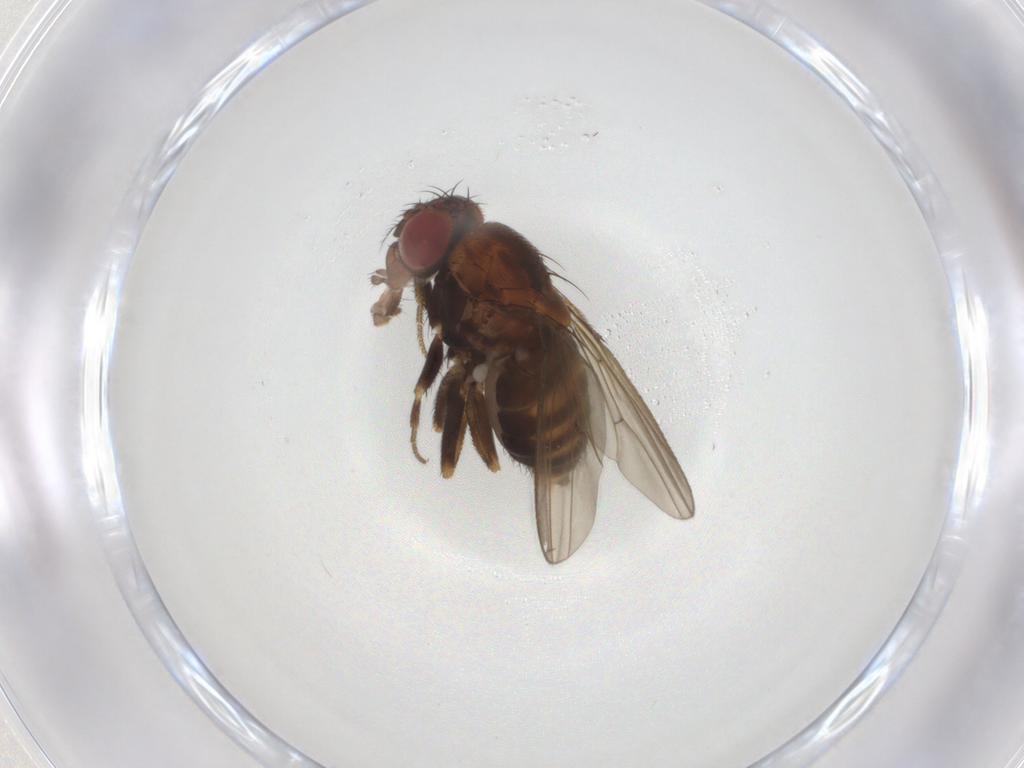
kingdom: Animalia
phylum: Arthropoda
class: Insecta
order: Diptera
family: Drosophilidae
